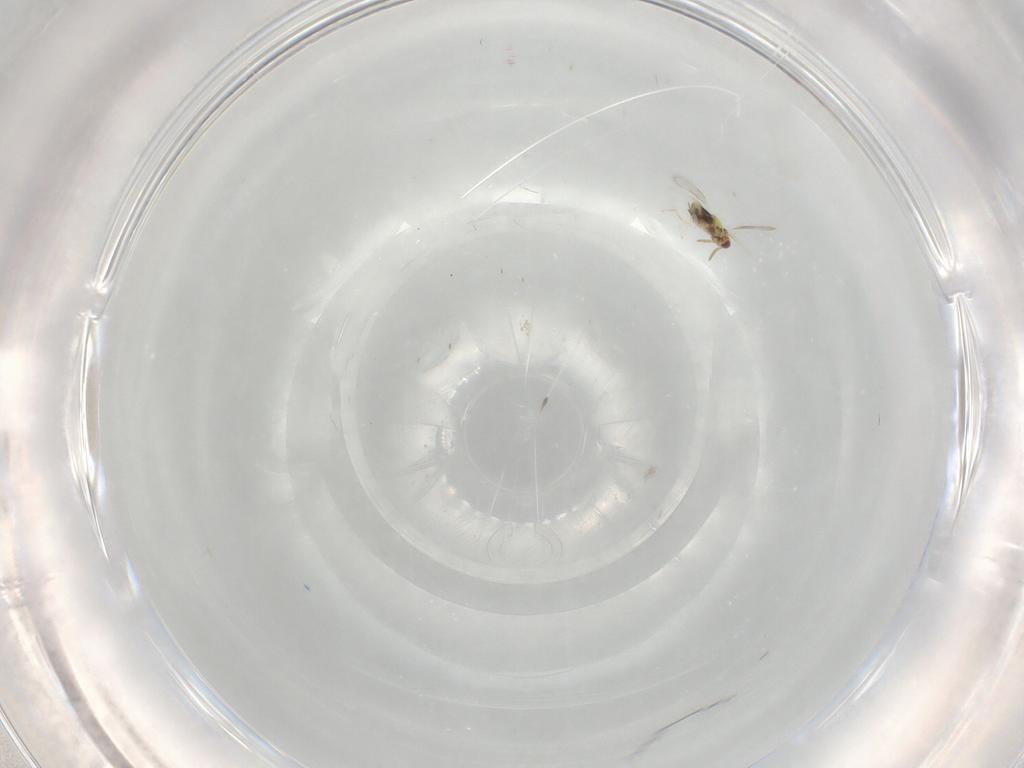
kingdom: Animalia
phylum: Arthropoda
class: Insecta
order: Hymenoptera
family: Aphelinidae
